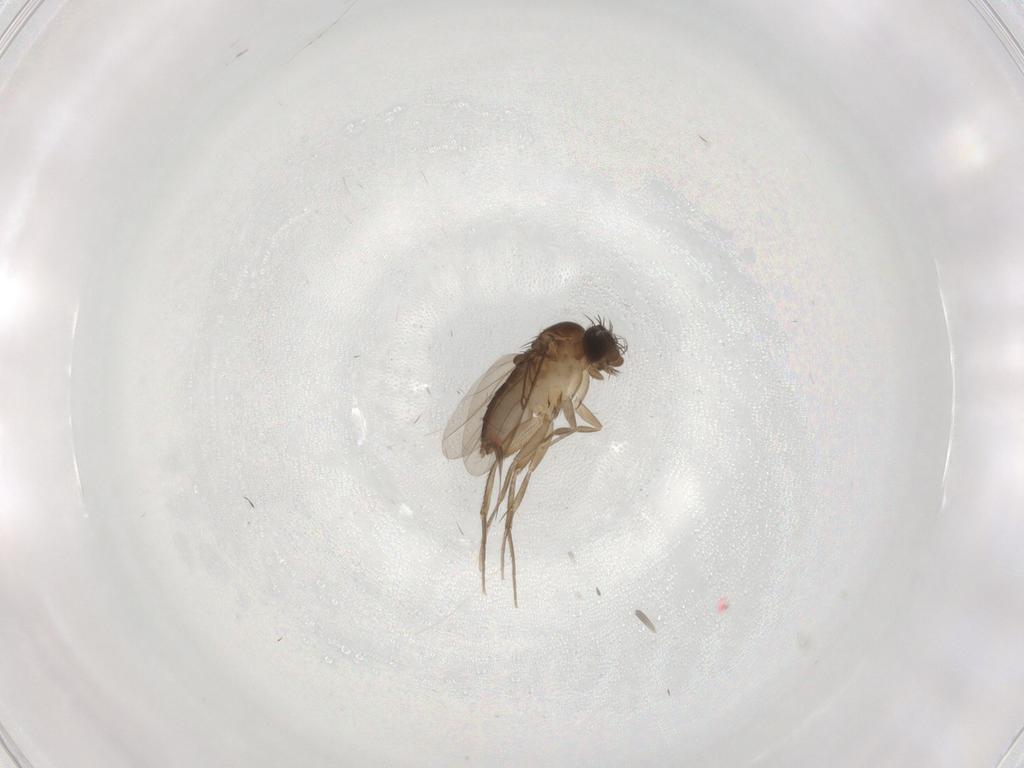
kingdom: Animalia
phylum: Arthropoda
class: Insecta
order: Diptera
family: Phoridae
